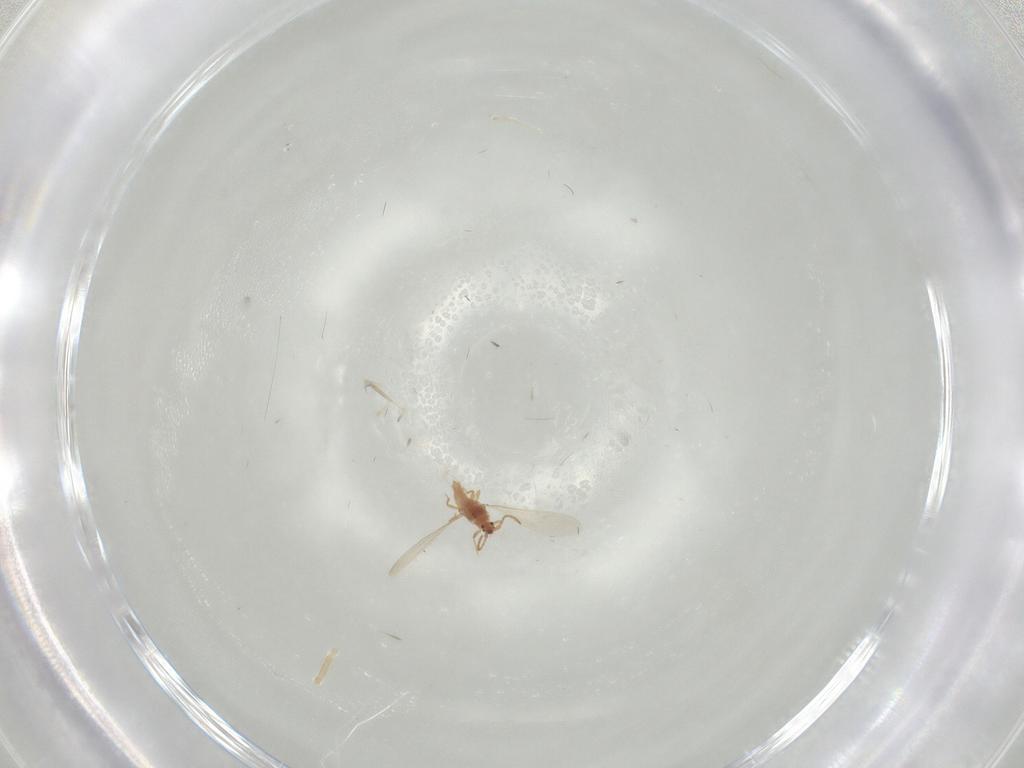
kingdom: Animalia
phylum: Arthropoda
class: Insecta
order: Hemiptera
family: Cicadellidae
